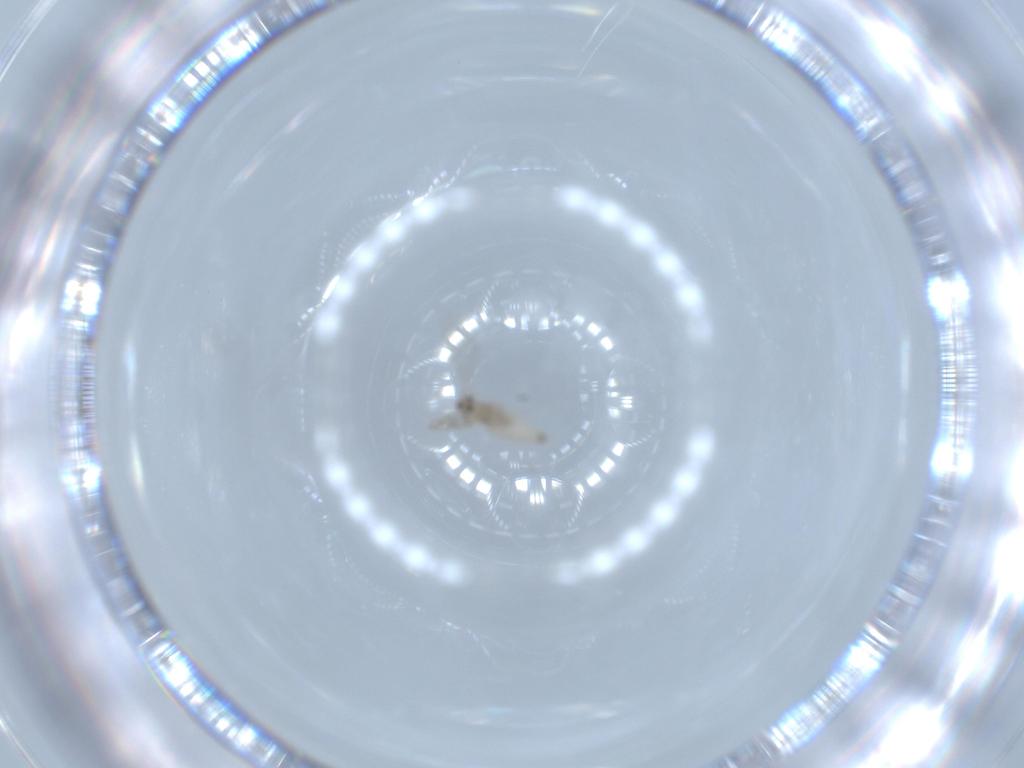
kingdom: Animalia
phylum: Arthropoda
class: Insecta
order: Diptera
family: Cecidomyiidae
